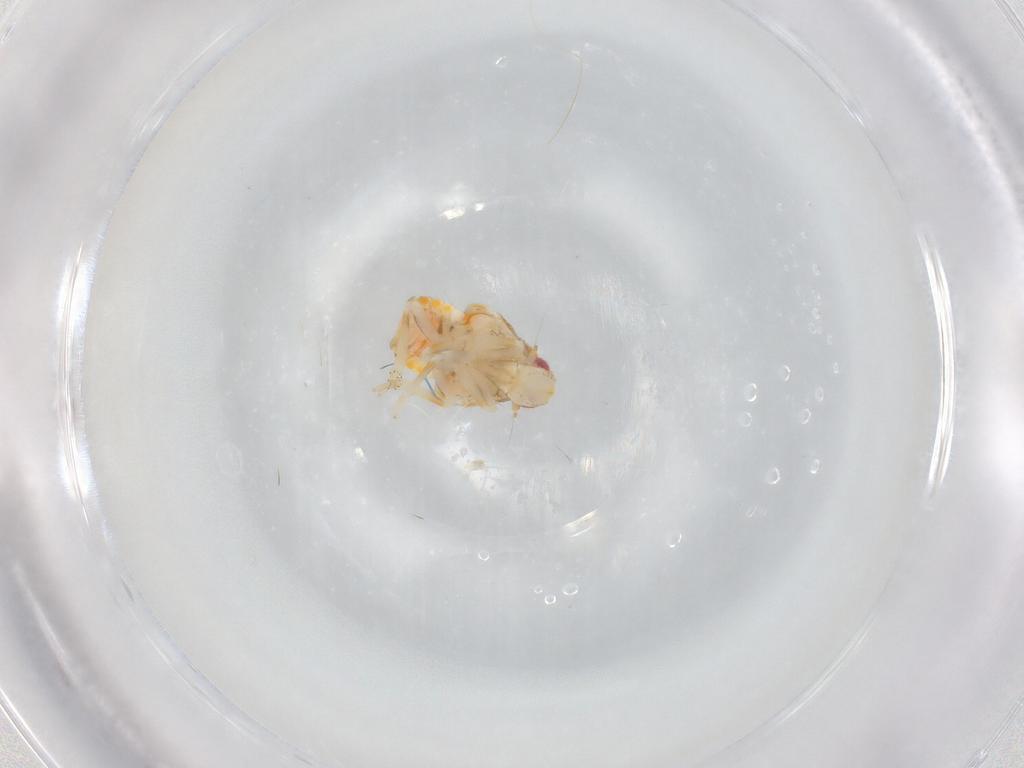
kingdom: Animalia
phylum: Arthropoda
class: Insecta
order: Hemiptera
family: Flatidae
